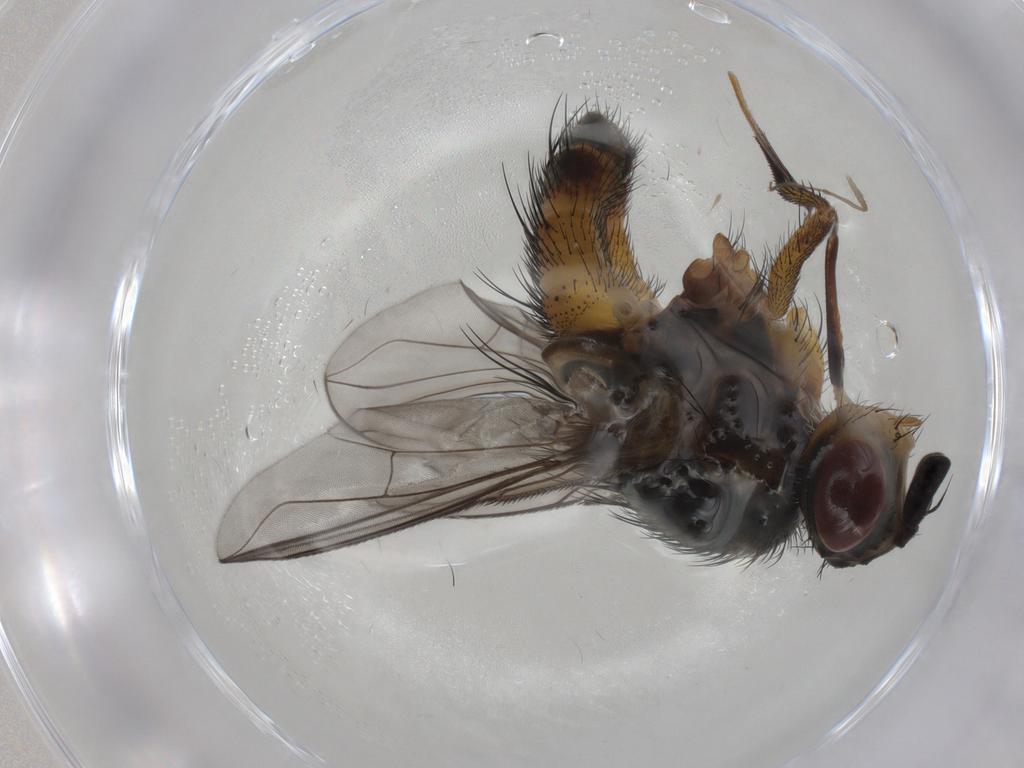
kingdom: Animalia
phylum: Arthropoda
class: Insecta
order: Diptera
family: Tachinidae
